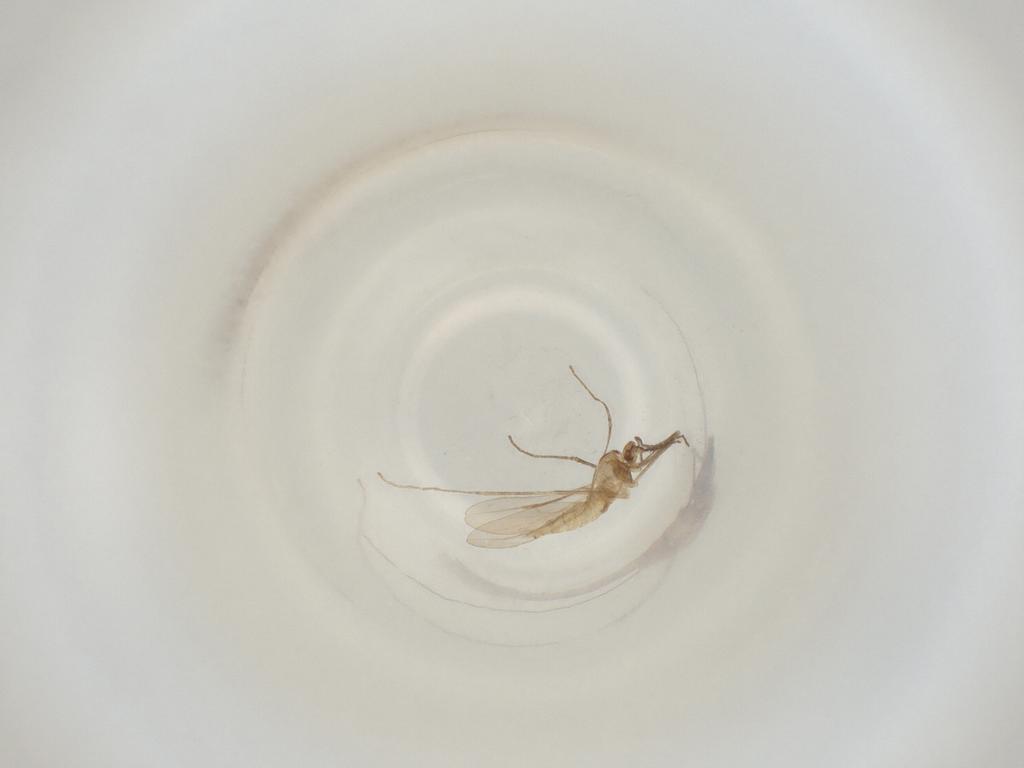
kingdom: Animalia
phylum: Arthropoda
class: Insecta
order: Diptera
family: Cecidomyiidae
